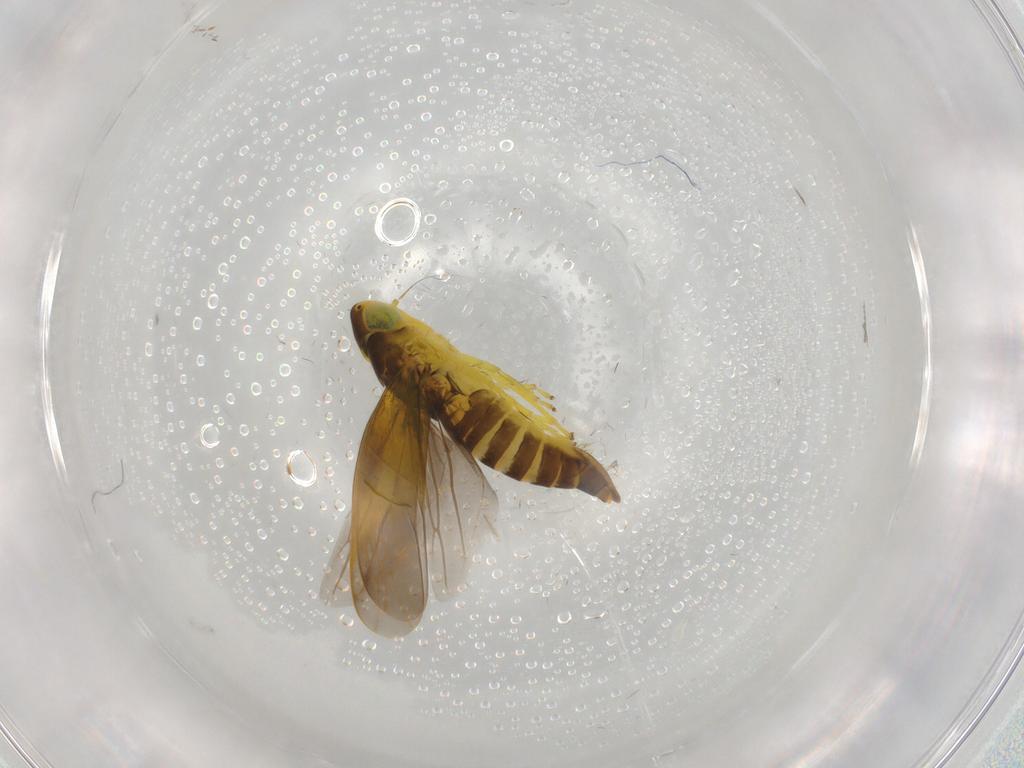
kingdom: Animalia
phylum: Arthropoda
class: Insecta
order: Hemiptera
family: Cicadellidae
